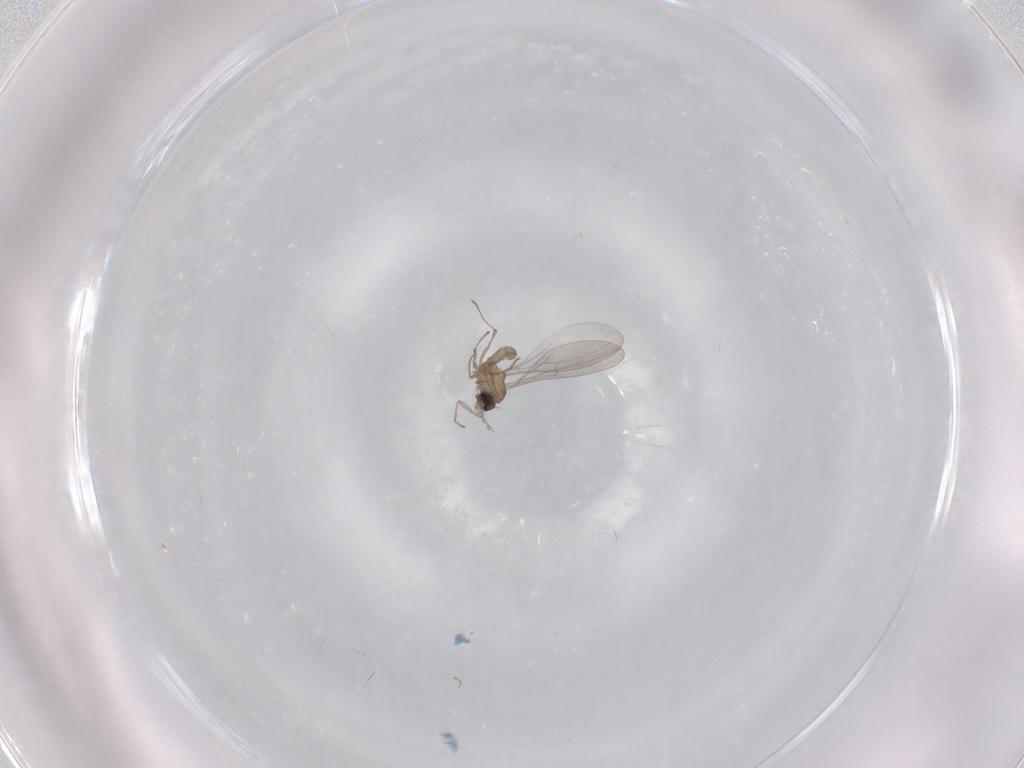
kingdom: Animalia
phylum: Arthropoda
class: Insecta
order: Diptera
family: Cecidomyiidae
